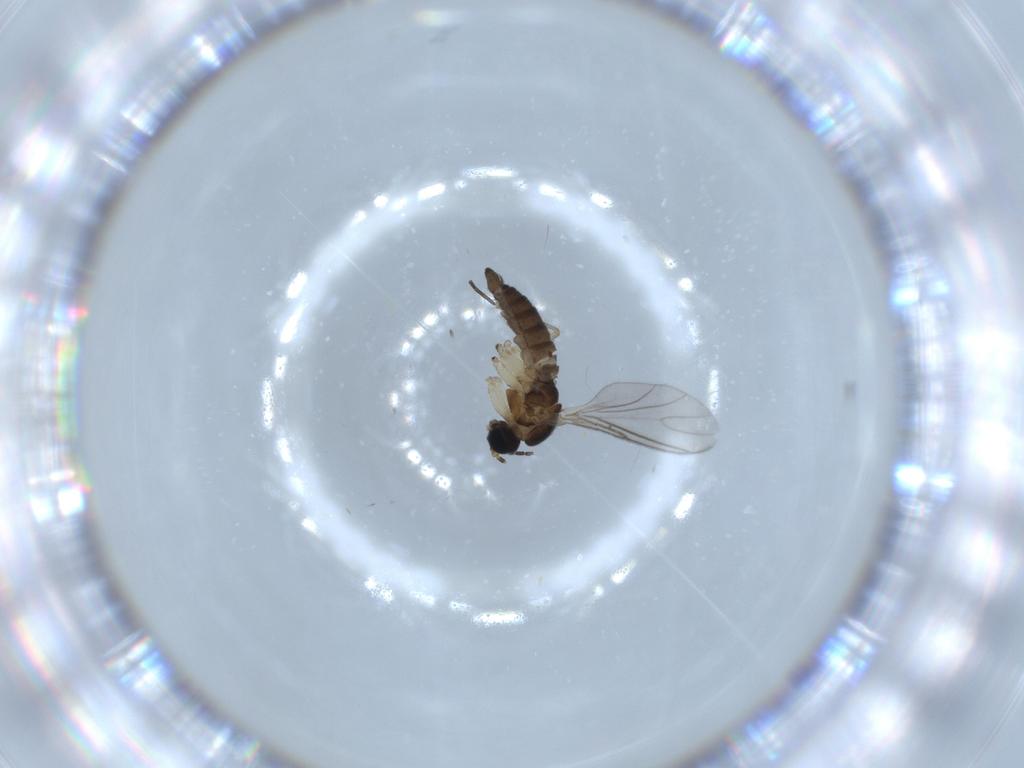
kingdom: Animalia
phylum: Arthropoda
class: Insecta
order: Diptera
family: Sciaridae
